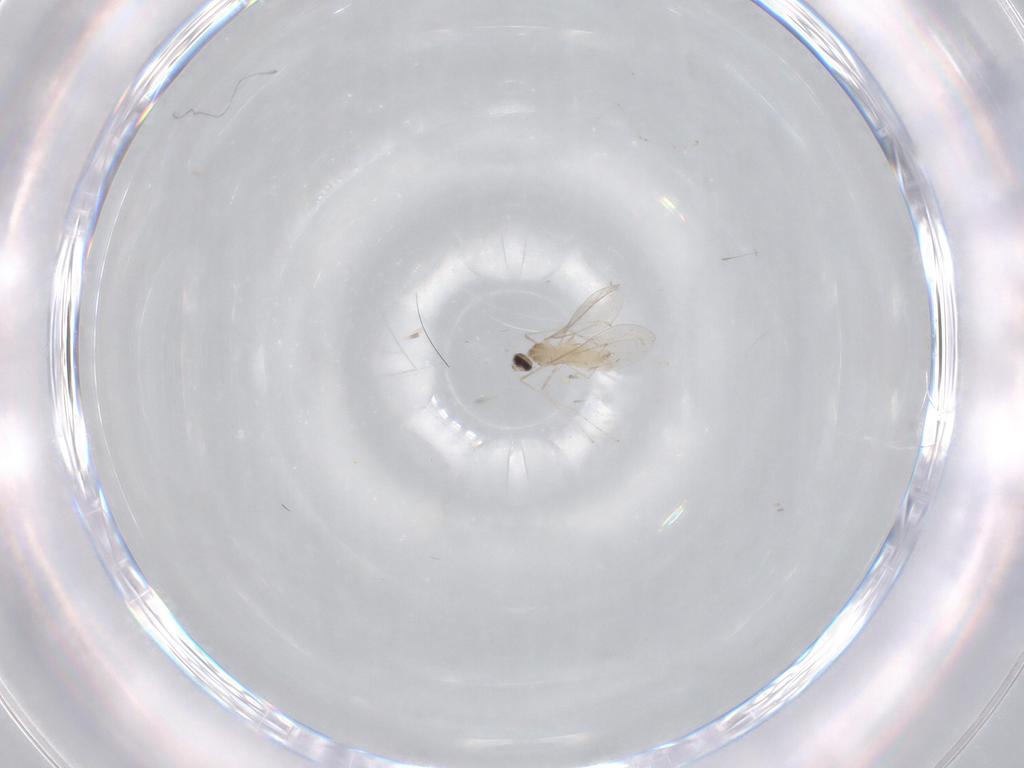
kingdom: Animalia
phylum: Arthropoda
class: Insecta
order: Diptera
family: Cecidomyiidae
